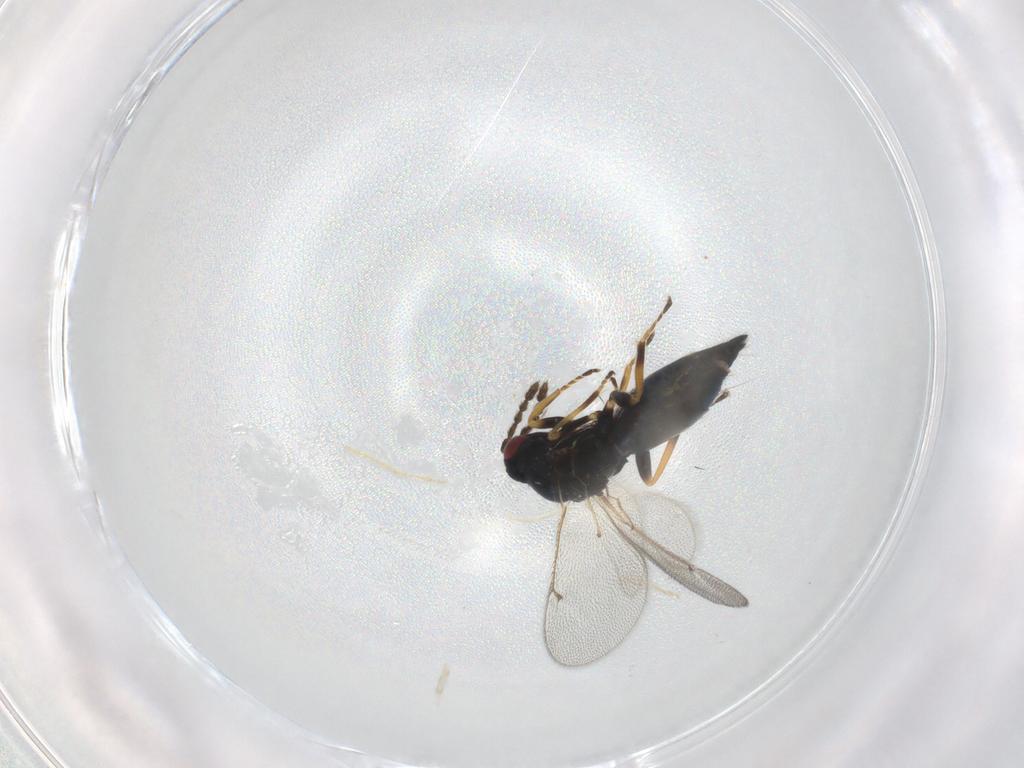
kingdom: Animalia
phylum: Arthropoda
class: Insecta
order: Hymenoptera
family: Eulophidae
